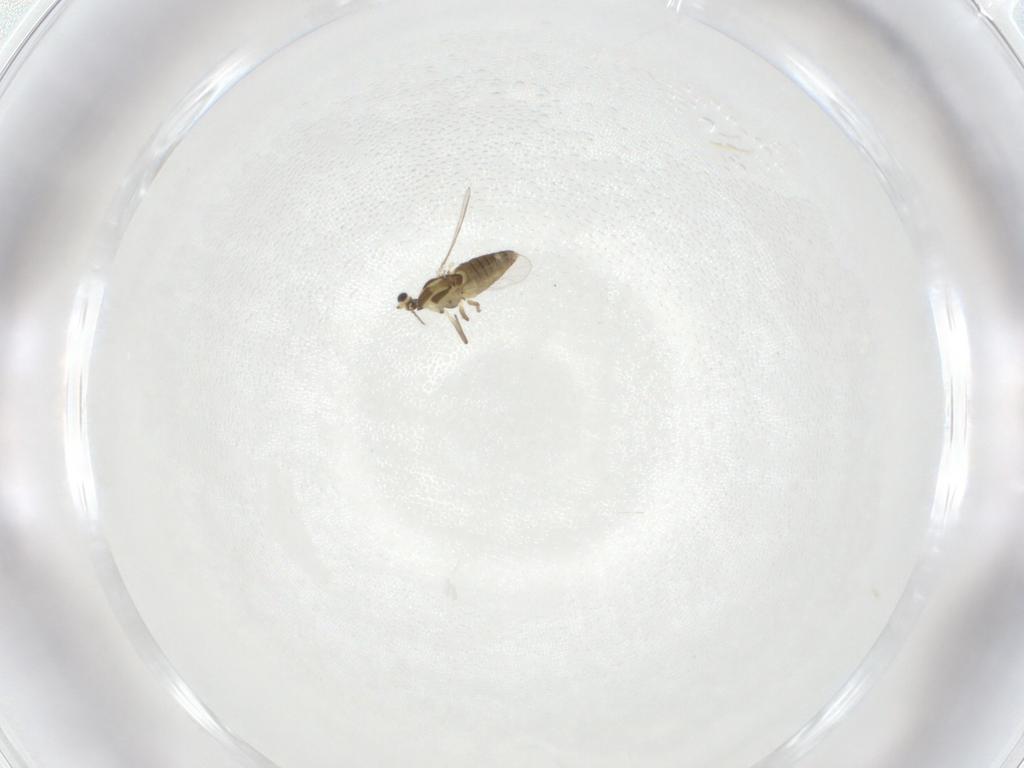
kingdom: Animalia
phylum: Arthropoda
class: Insecta
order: Diptera
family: Chironomidae
